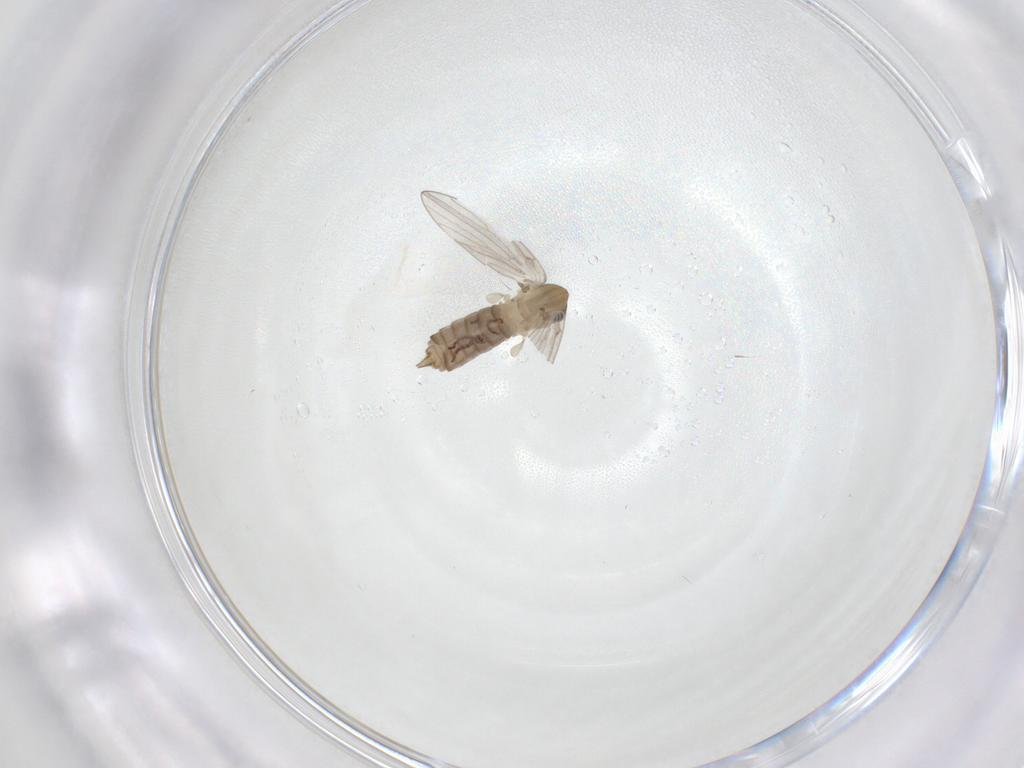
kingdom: Animalia
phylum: Arthropoda
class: Insecta
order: Diptera
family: Psychodidae
